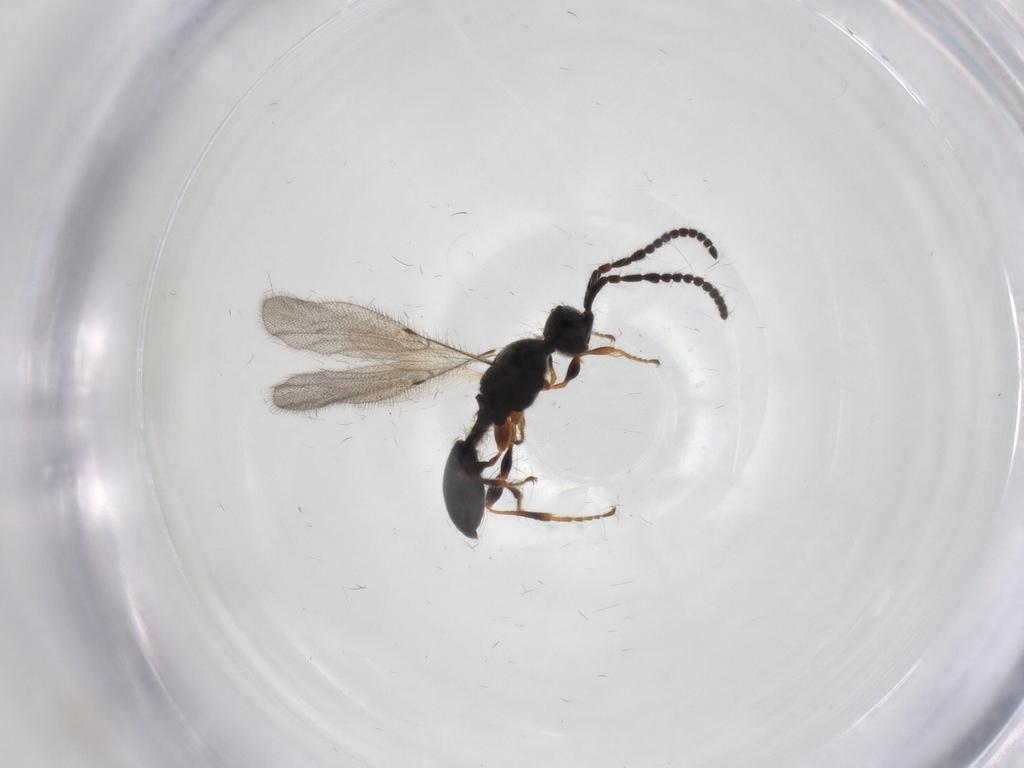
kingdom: Animalia
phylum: Arthropoda
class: Insecta
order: Hymenoptera
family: Diapriidae
